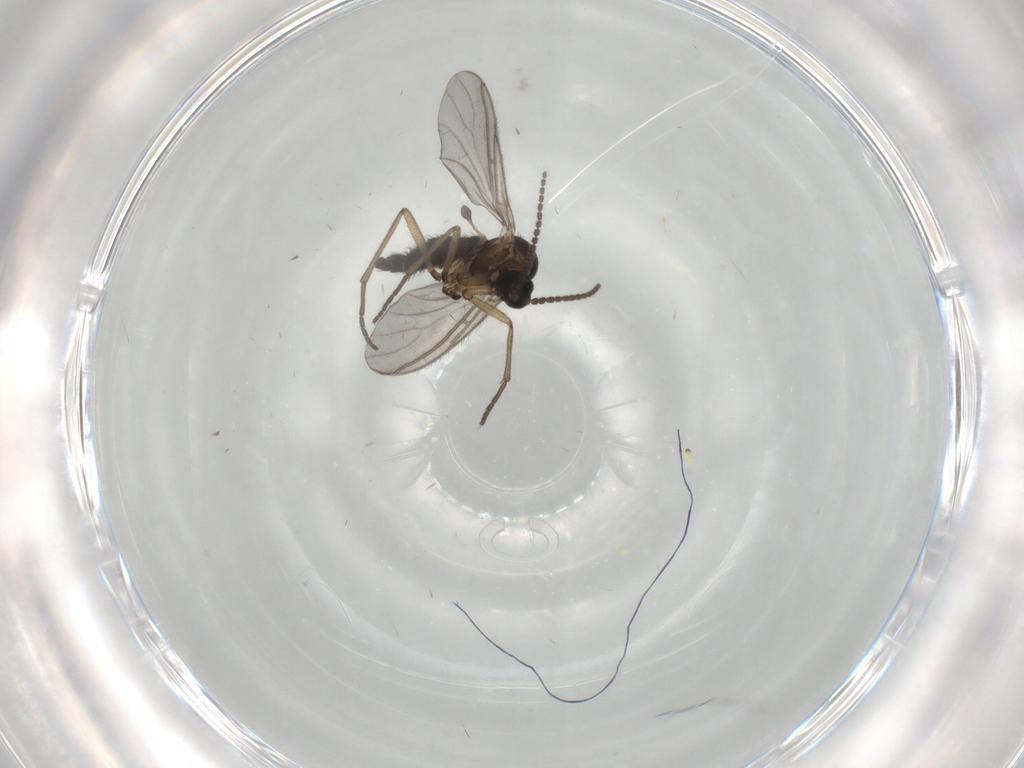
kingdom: Animalia
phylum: Arthropoda
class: Insecta
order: Diptera
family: Sciaridae
